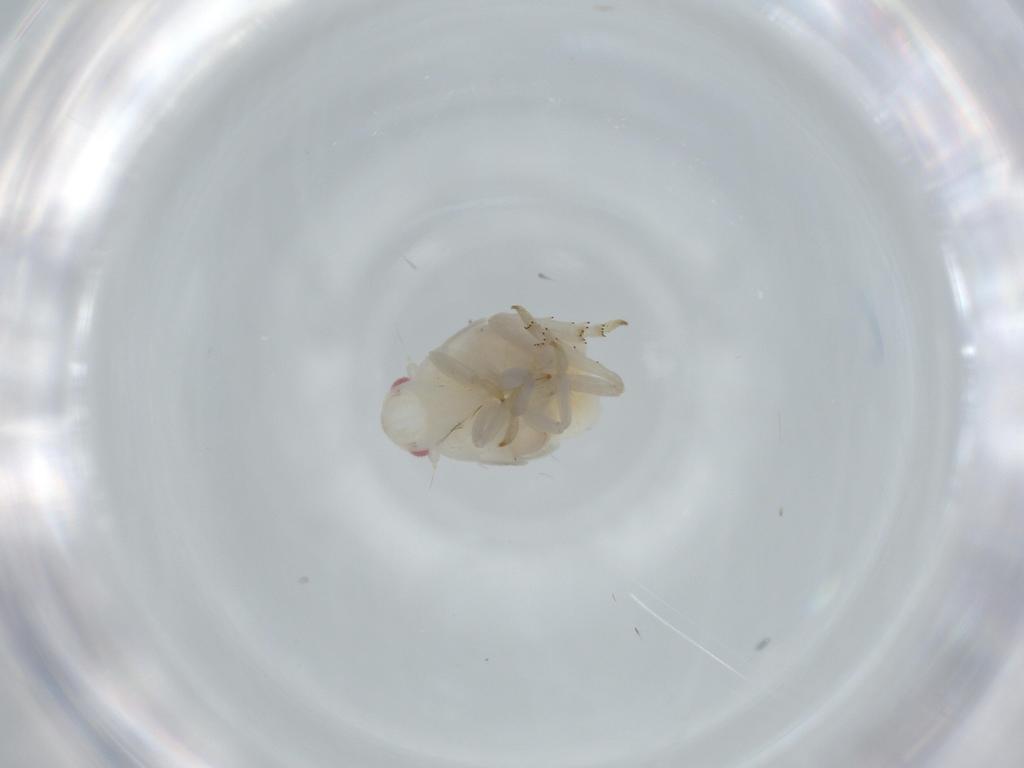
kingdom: Animalia
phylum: Arthropoda
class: Insecta
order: Hemiptera
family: Flatidae
